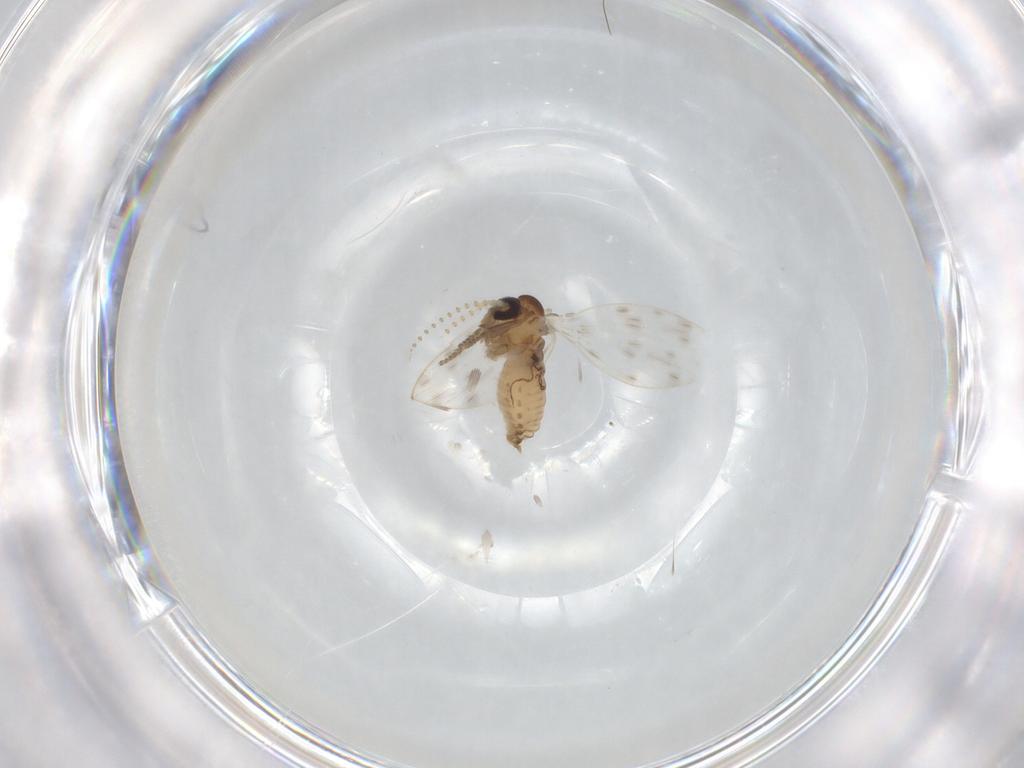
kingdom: Animalia
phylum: Arthropoda
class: Insecta
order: Diptera
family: Psychodidae
